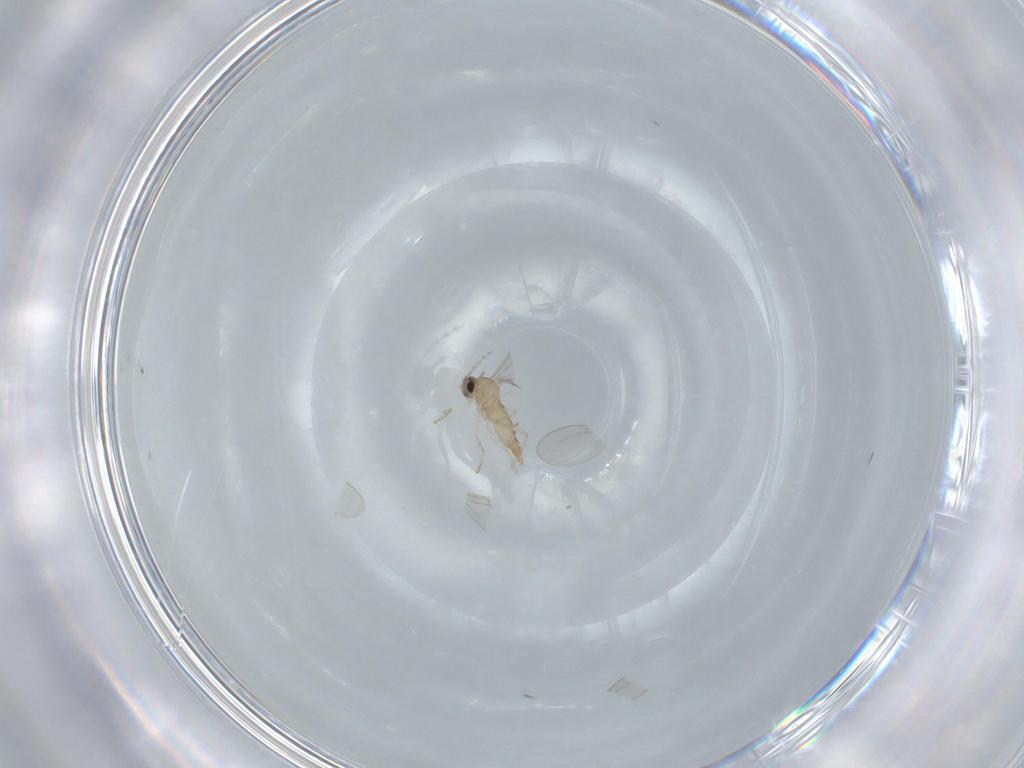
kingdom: Animalia
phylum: Arthropoda
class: Insecta
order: Diptera
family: Cecidomyiidae
